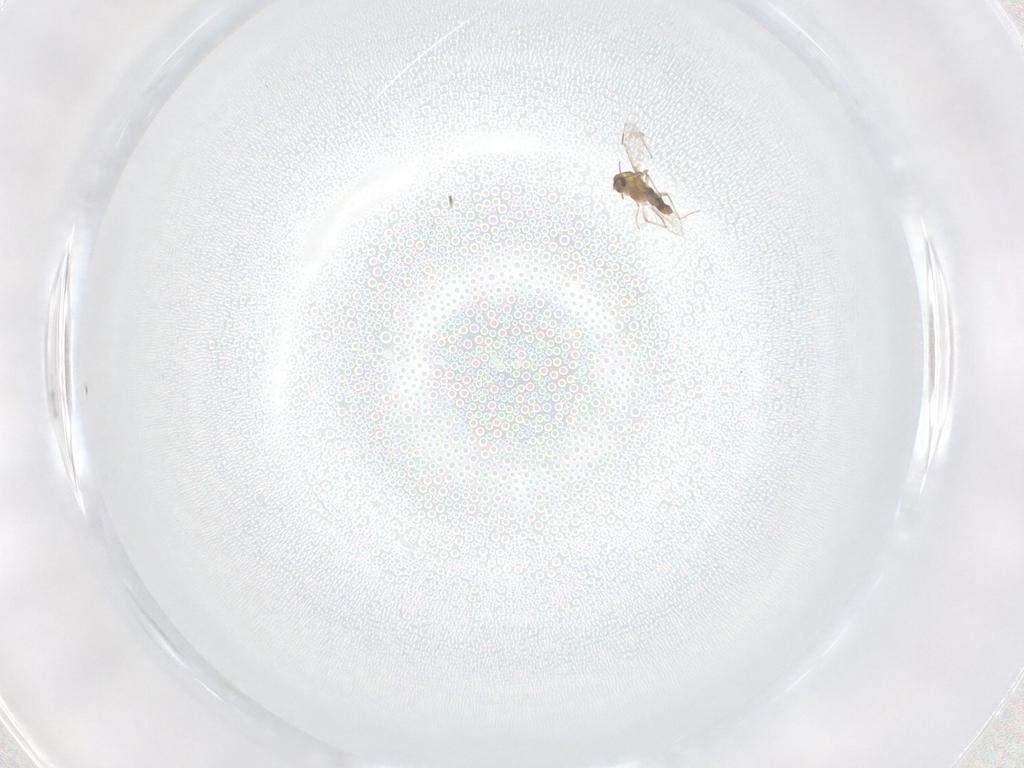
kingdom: Animalia
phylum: Arthropoda
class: Insecta
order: Diptera
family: Chironomidae
